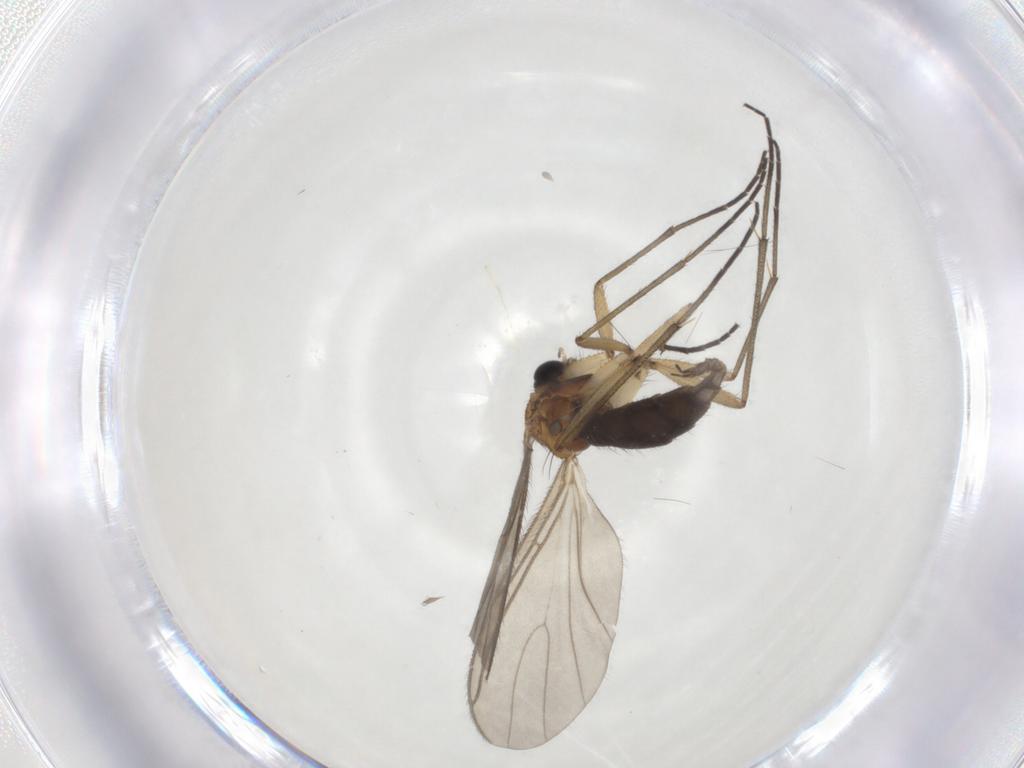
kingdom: Animalia
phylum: Arthropoda
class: Insecta
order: Diptera
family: Sciaridae
